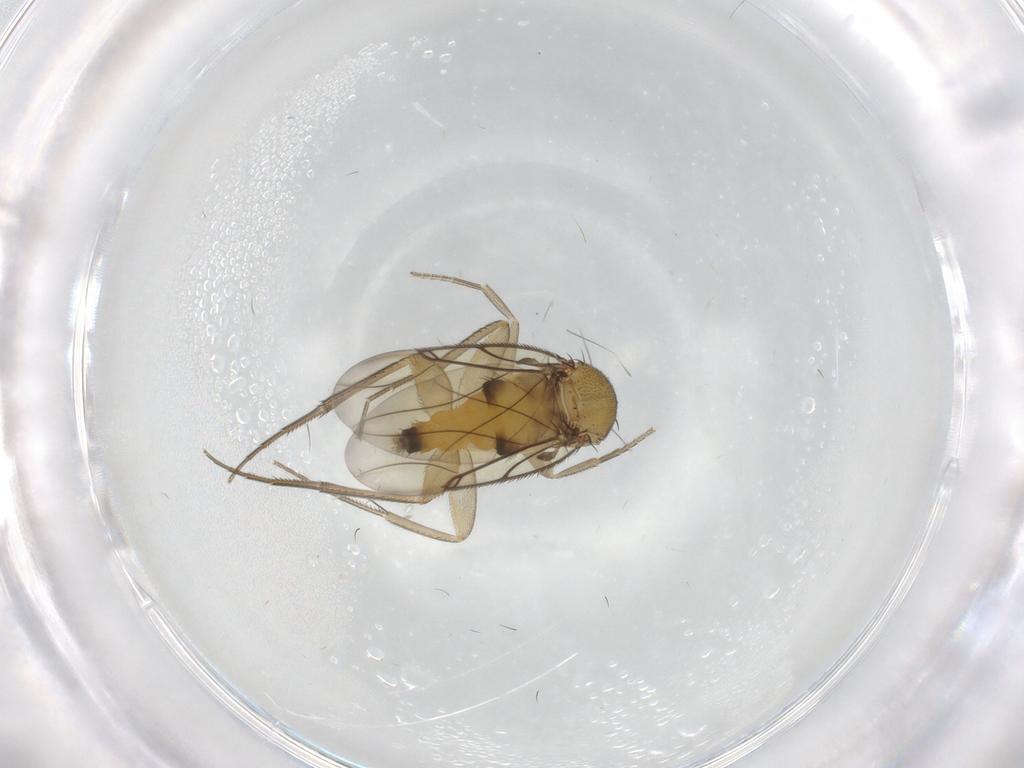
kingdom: Animalia
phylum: Arthropoda
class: Insecta
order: Diptera
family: Phoridae
